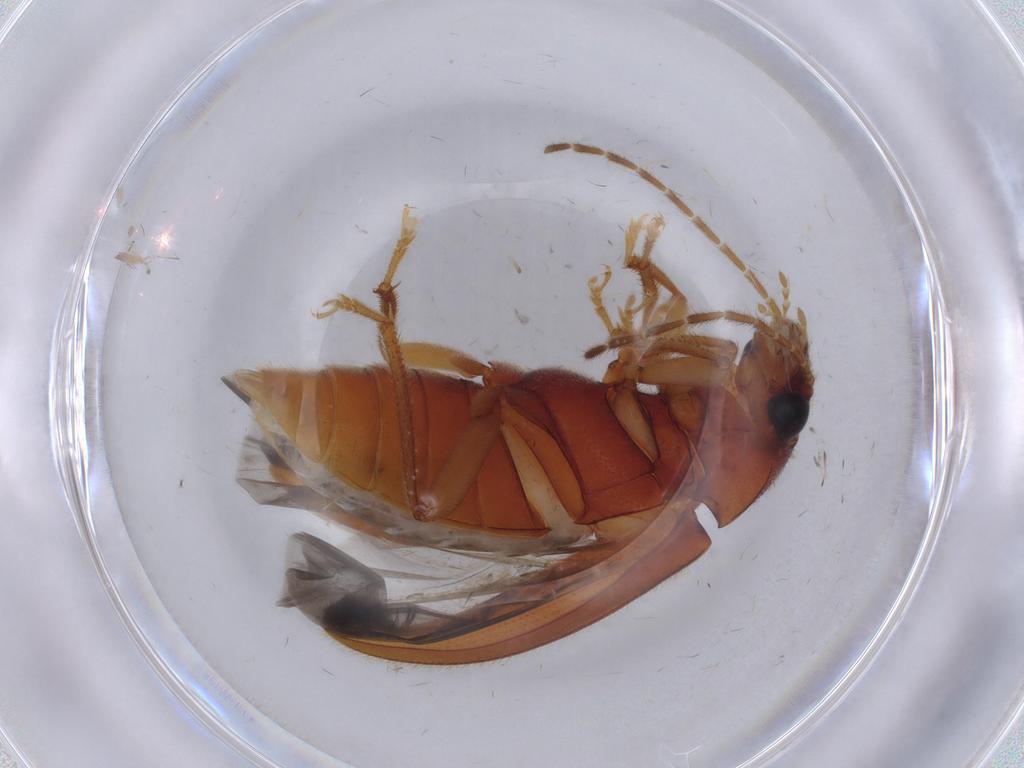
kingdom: Animalia
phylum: Arthropoda
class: Insecta
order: Coleoptera
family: Ptilodactylidae
